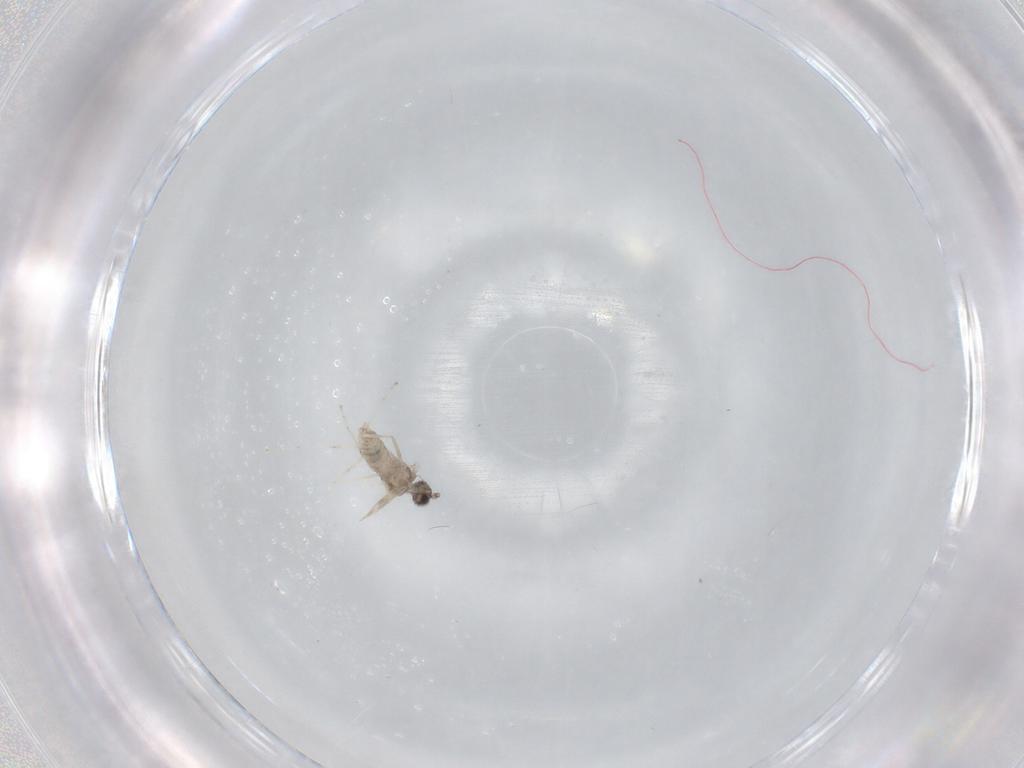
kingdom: Animalia
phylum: Arthropoda
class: Insecta
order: Diptera
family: Cecidomyiidae
